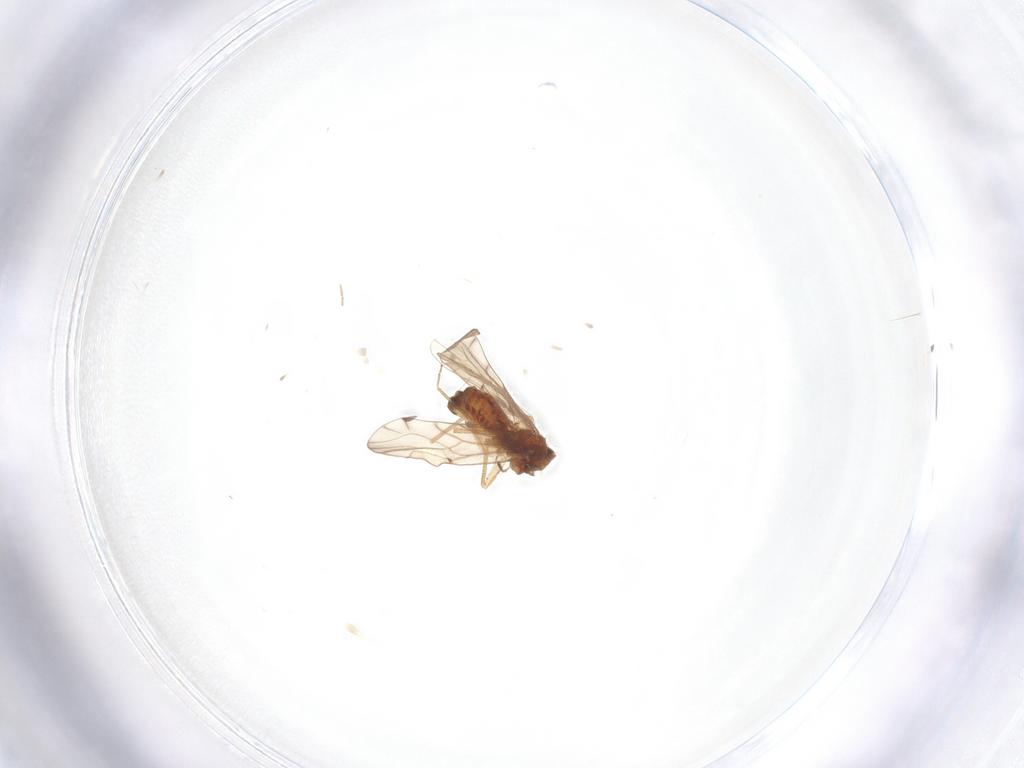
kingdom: Animalia
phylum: Arthropoda
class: Insecta
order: Psocodea
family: Ectopsocidae
